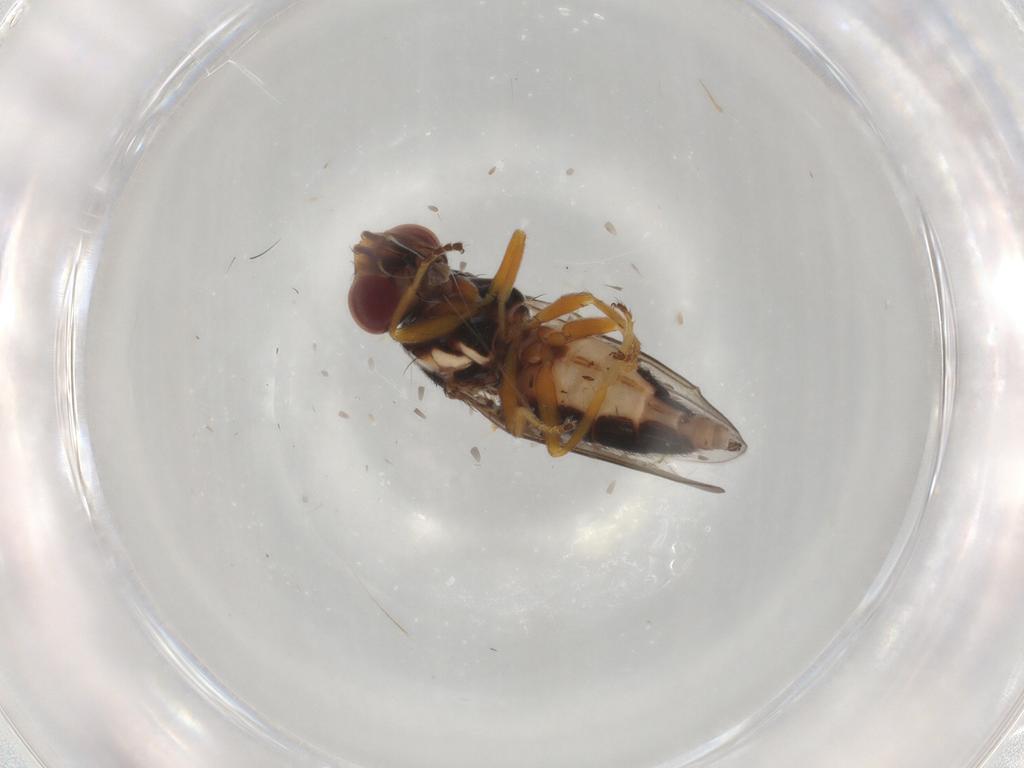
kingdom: Animalia
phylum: Arthropoda
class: Insecta
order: Diptera
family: Chloropidae
